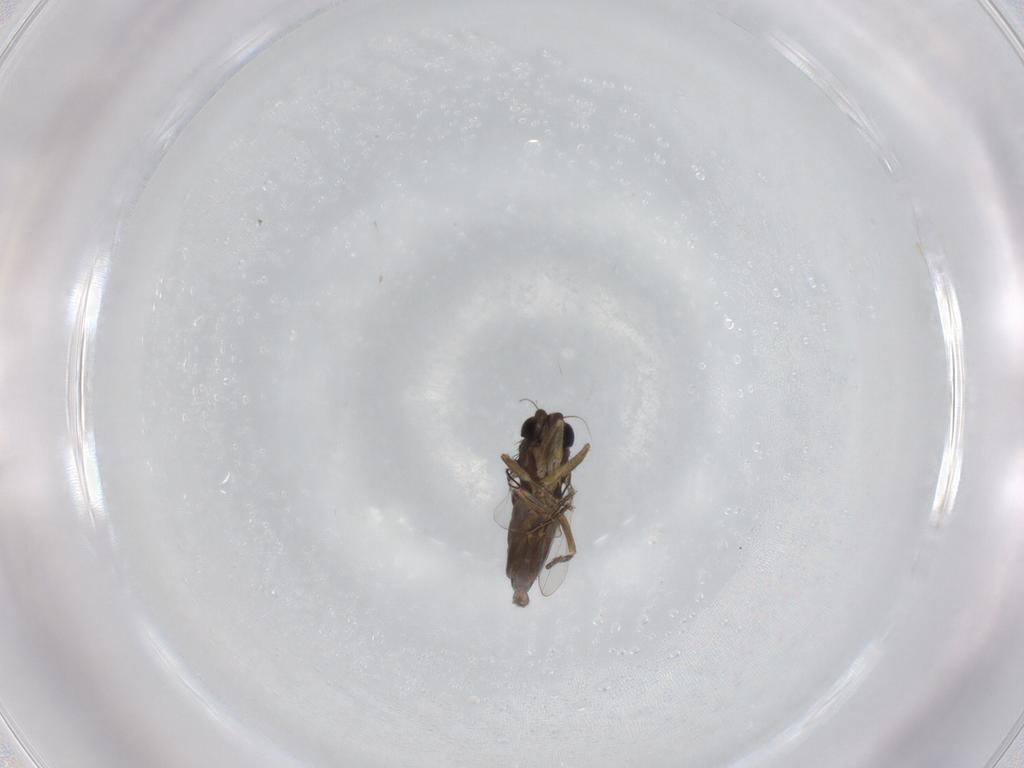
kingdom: Animalia
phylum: Arthropoda
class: Insecta
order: Diptera
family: Phoridae
